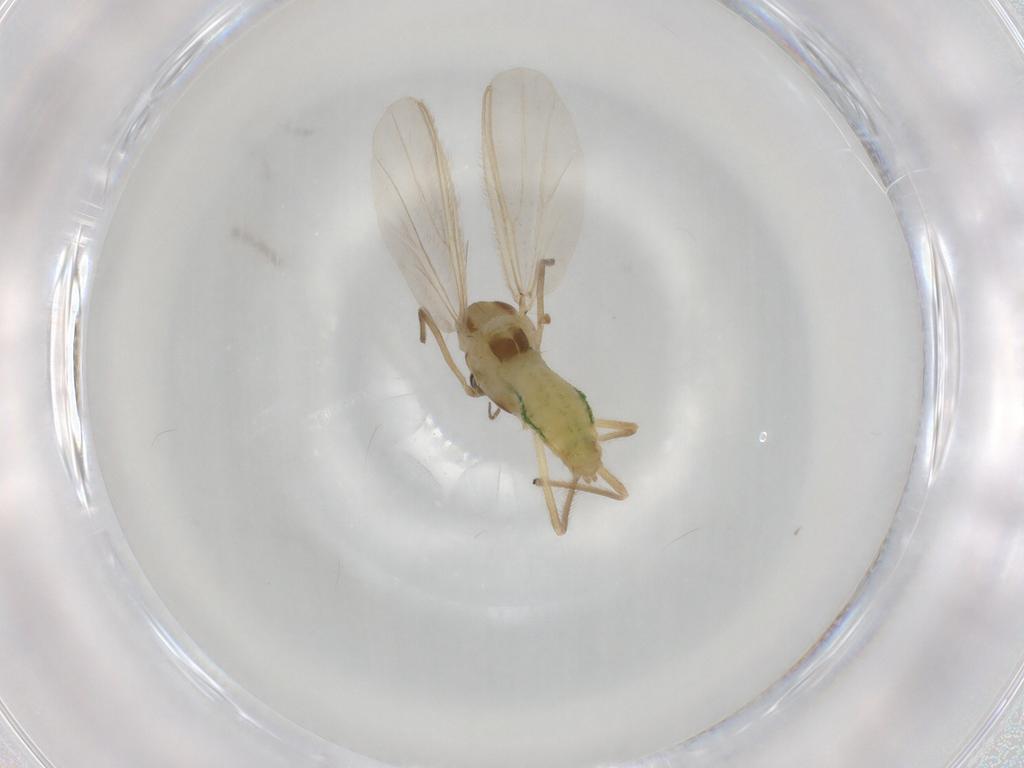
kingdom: Animalia
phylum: Arthropoda
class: Insecta
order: Diptera
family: Chironomidae
